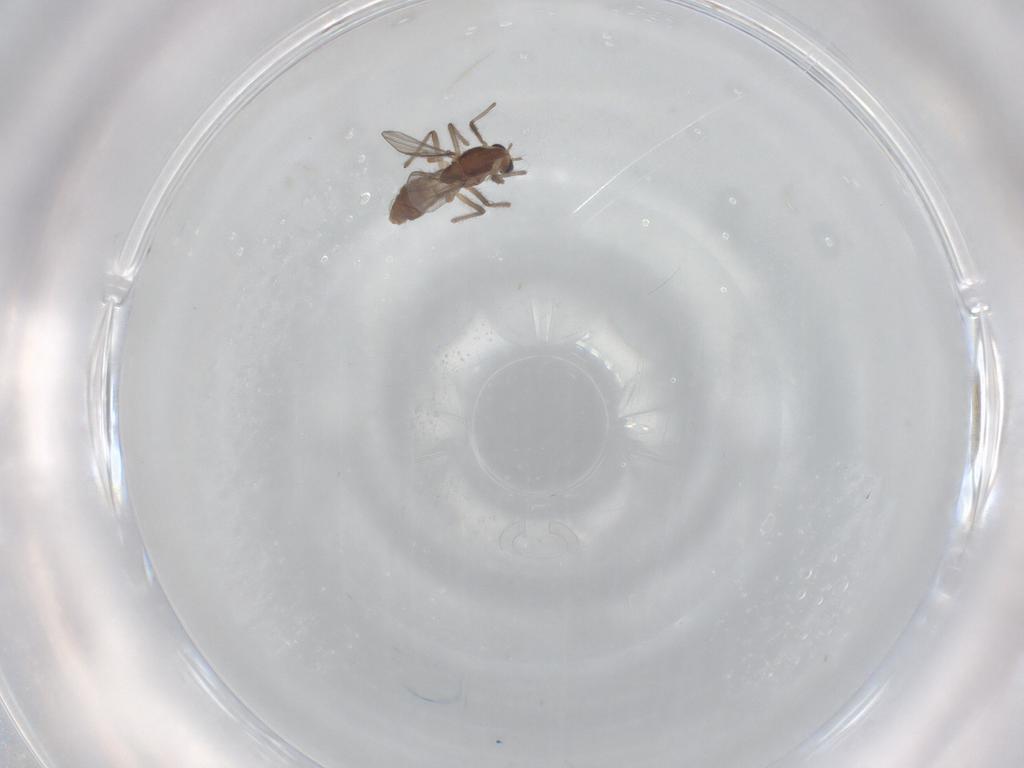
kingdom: Animalia
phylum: Arthropoda
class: Insecta
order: Diptera
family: Chironomidae
